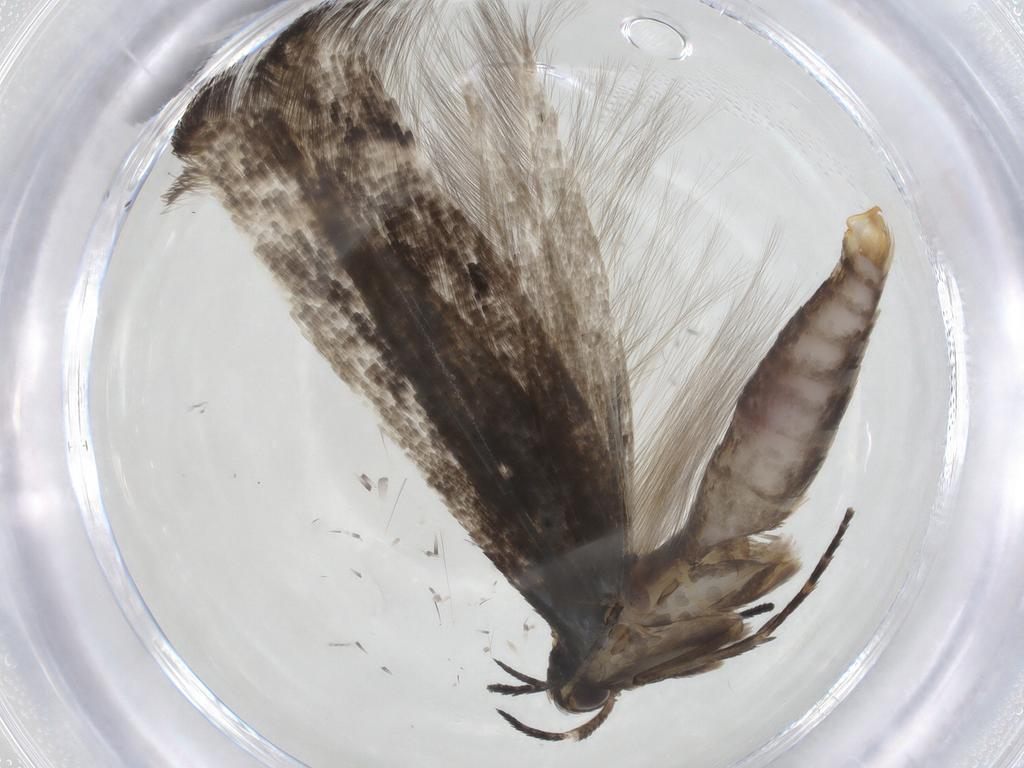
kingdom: Animalia
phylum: Arthropoda
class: Insecta
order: Lepidoptera
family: Momphidae
